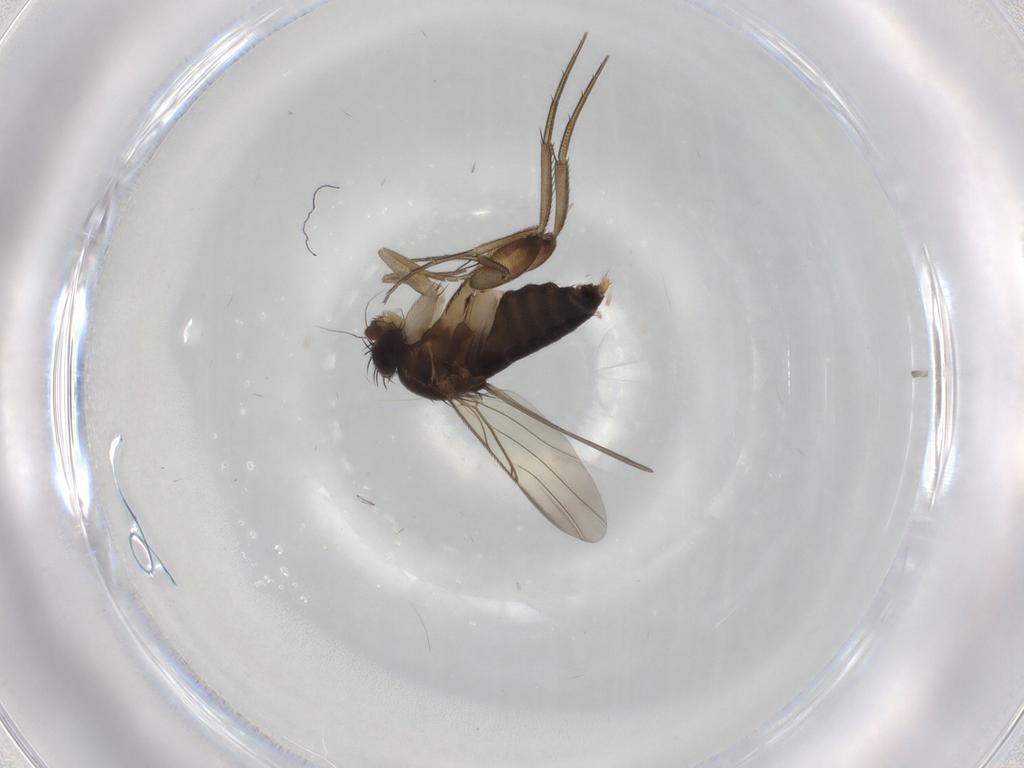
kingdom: Animalia
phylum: Arthropoda
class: Insecta
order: Diptera
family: Phoridae
